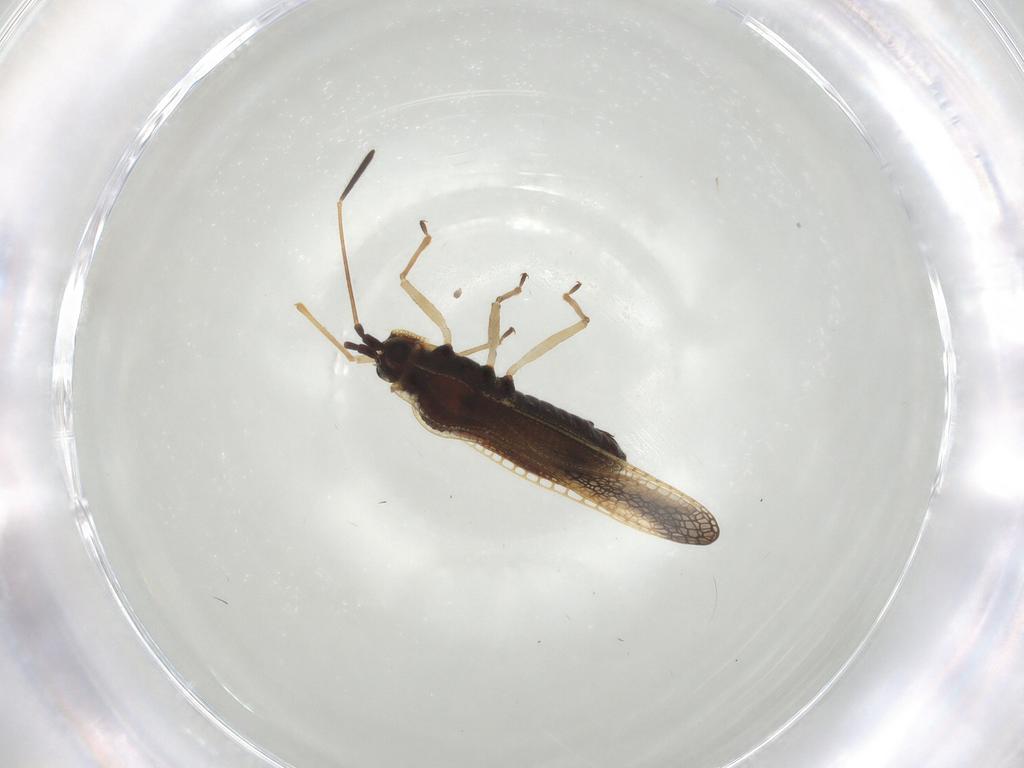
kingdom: Animalia
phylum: Arthropoda
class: Insecta
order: Hemiptera
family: Tingidae
